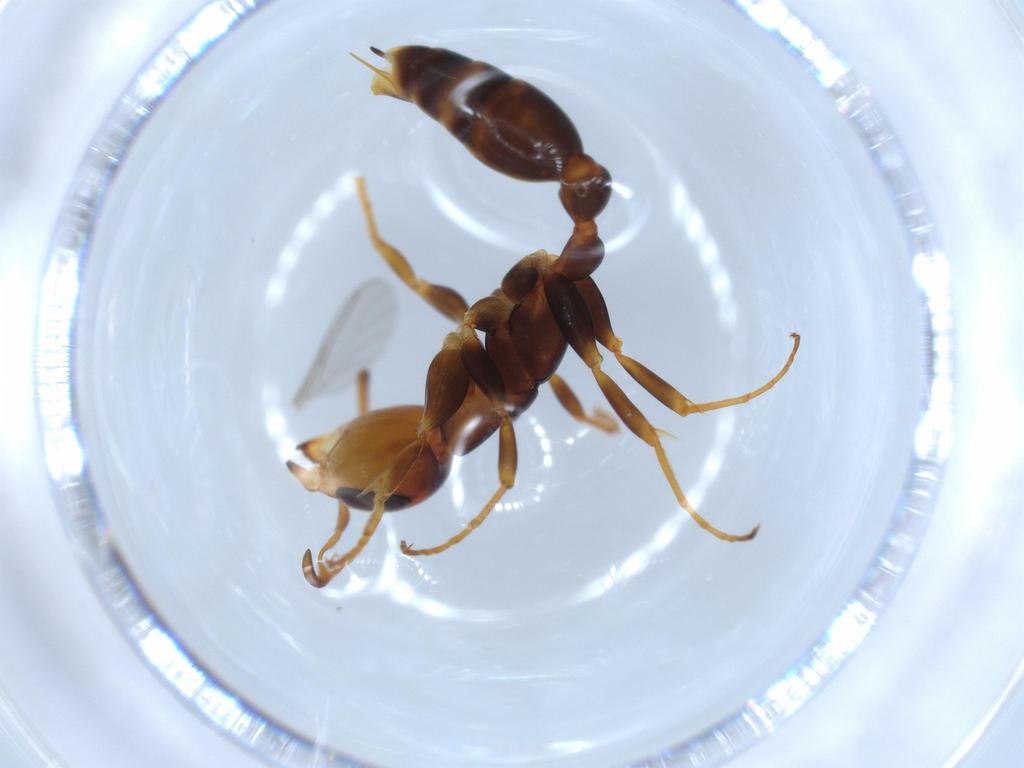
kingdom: Animalia
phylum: Arthropoda
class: Insecta
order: Hymenoptera
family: Formicidae
